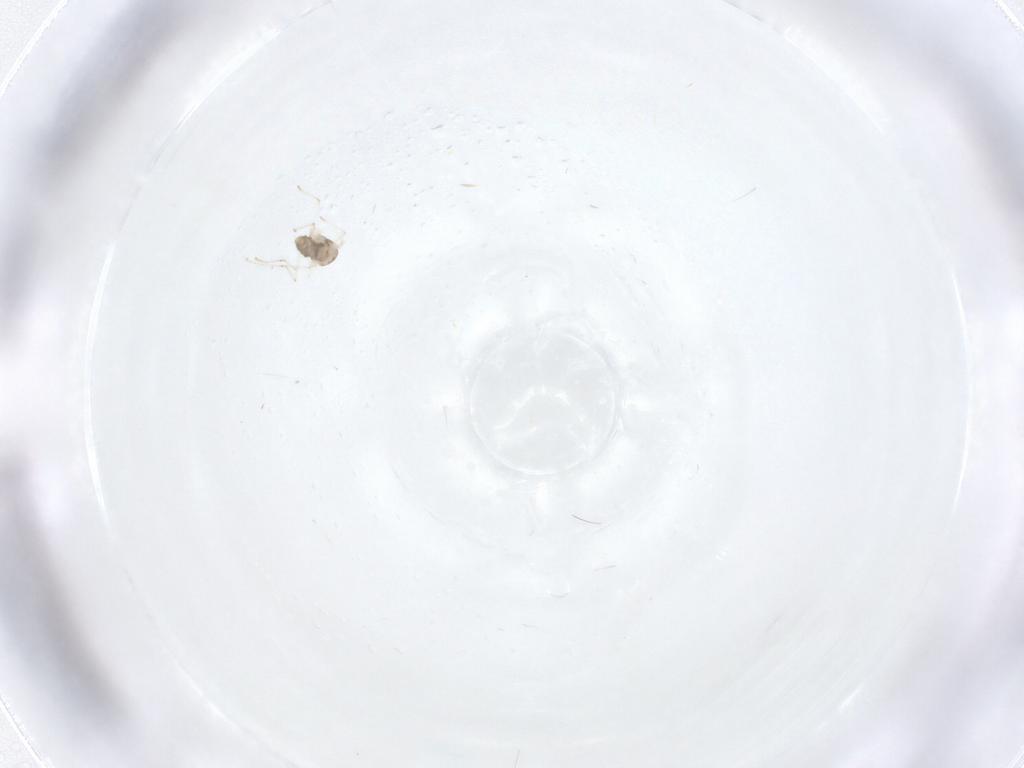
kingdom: Animalia
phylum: Arthropoda
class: Insecta
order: Diptera
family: Cecidomyiidae
